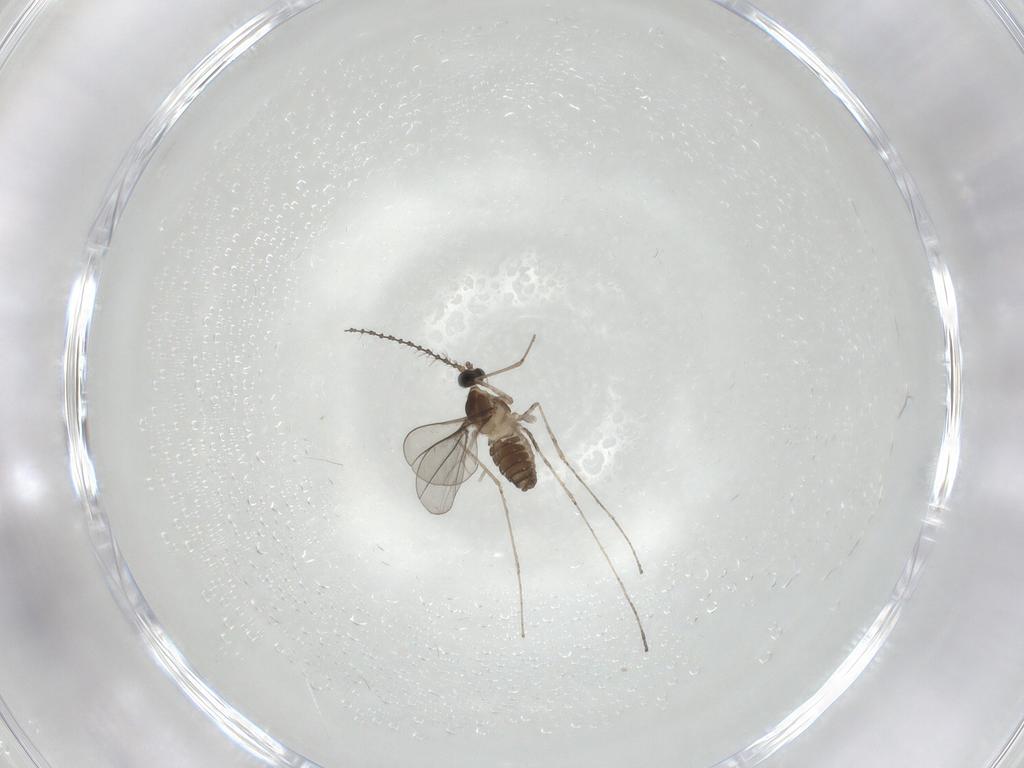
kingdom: Animalia
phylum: Arthropoda
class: Insecta
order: Diptera
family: Cecidomyiidae
